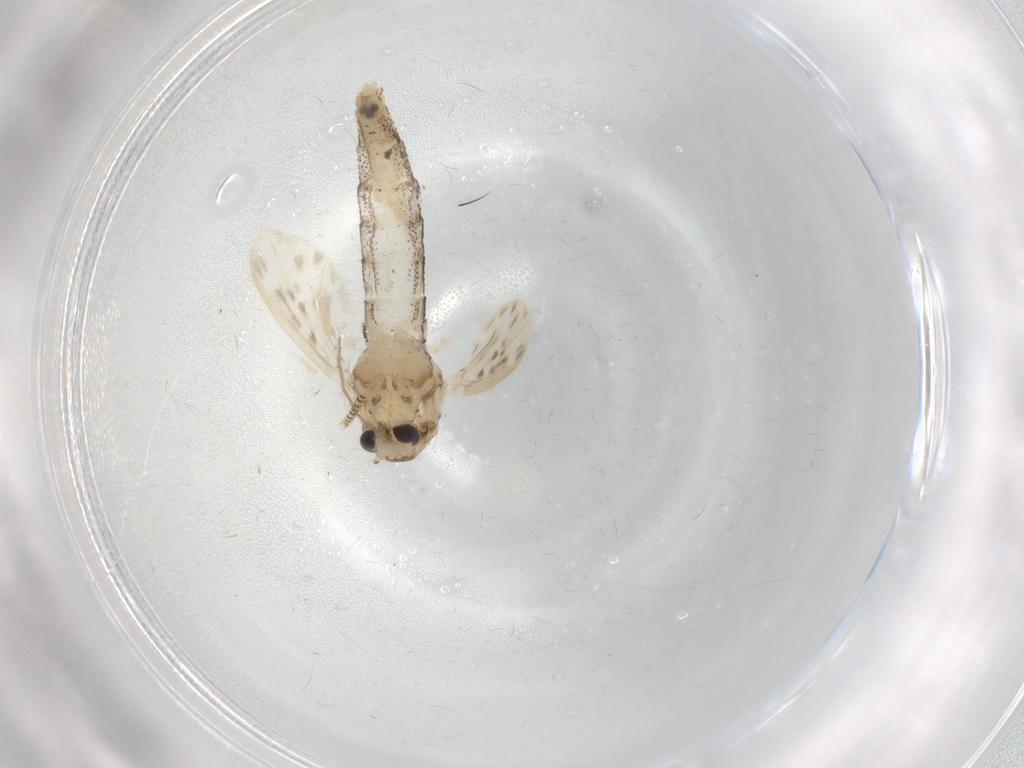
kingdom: Animalia
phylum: Arthropoda
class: Insecta
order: Diptera
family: Chaoboridae
